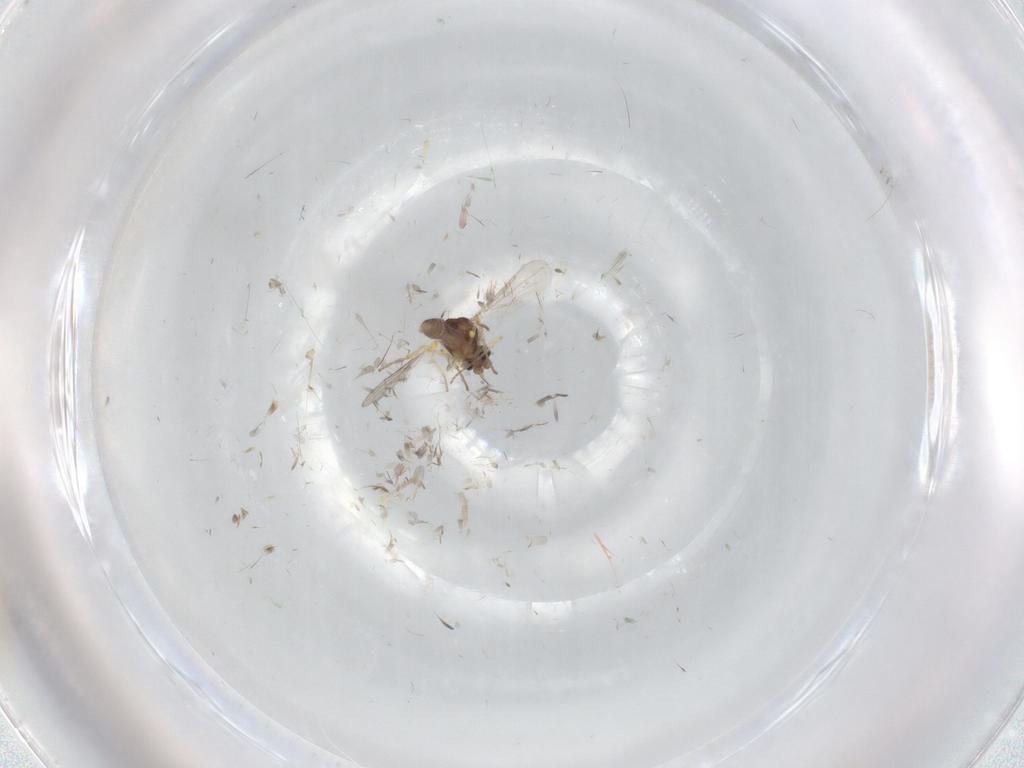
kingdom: Animalia
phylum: Arthropoda
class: Insecta
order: Diptera
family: Ceratopogonidae
